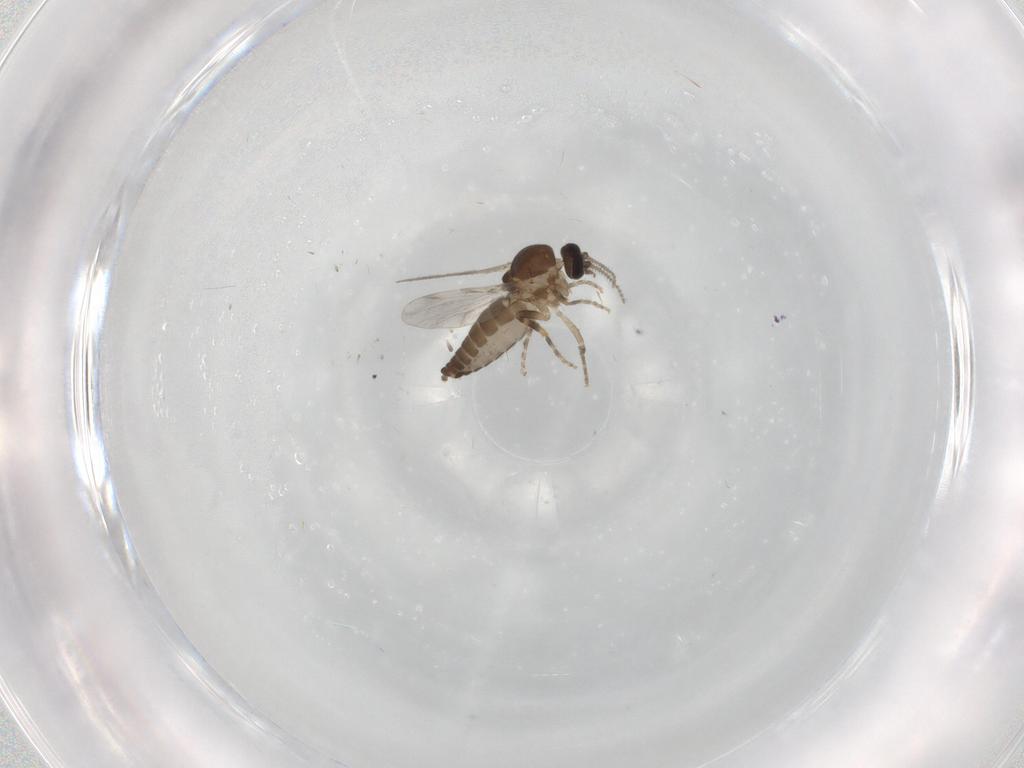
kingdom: Animalia
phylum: Arthropoda
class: Insecta
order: Diptera
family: Ceratopogonidae
